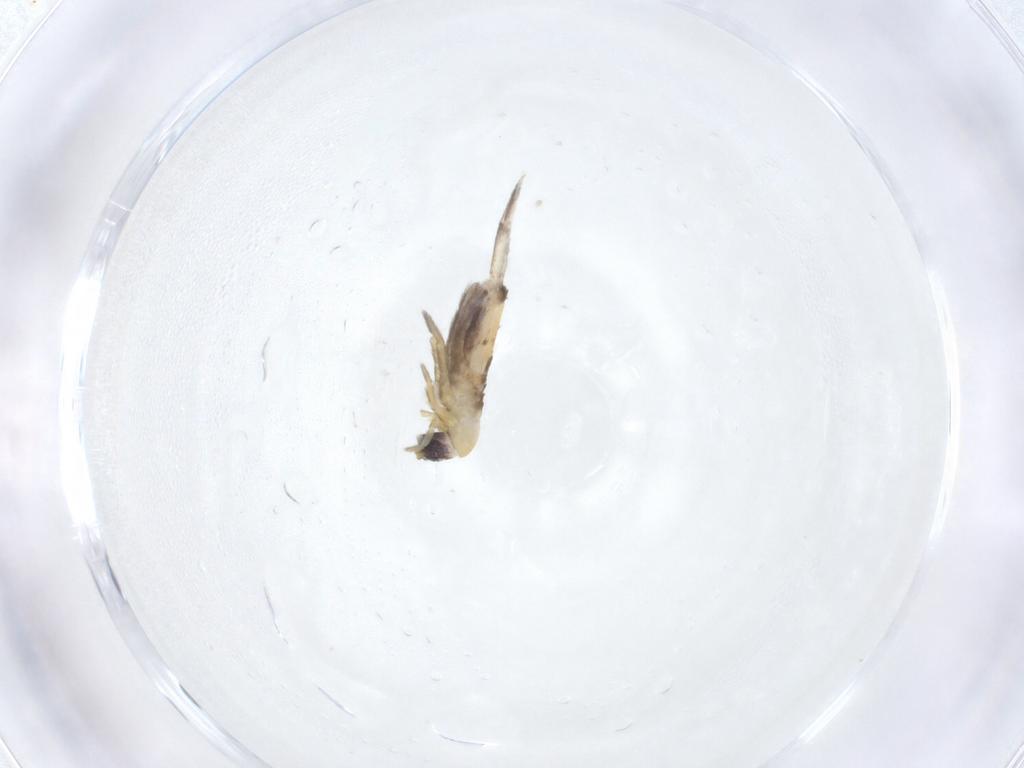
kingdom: Animalia
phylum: Arthropoda
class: Collembola
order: Entomobryomorpha
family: Entomobryidae
